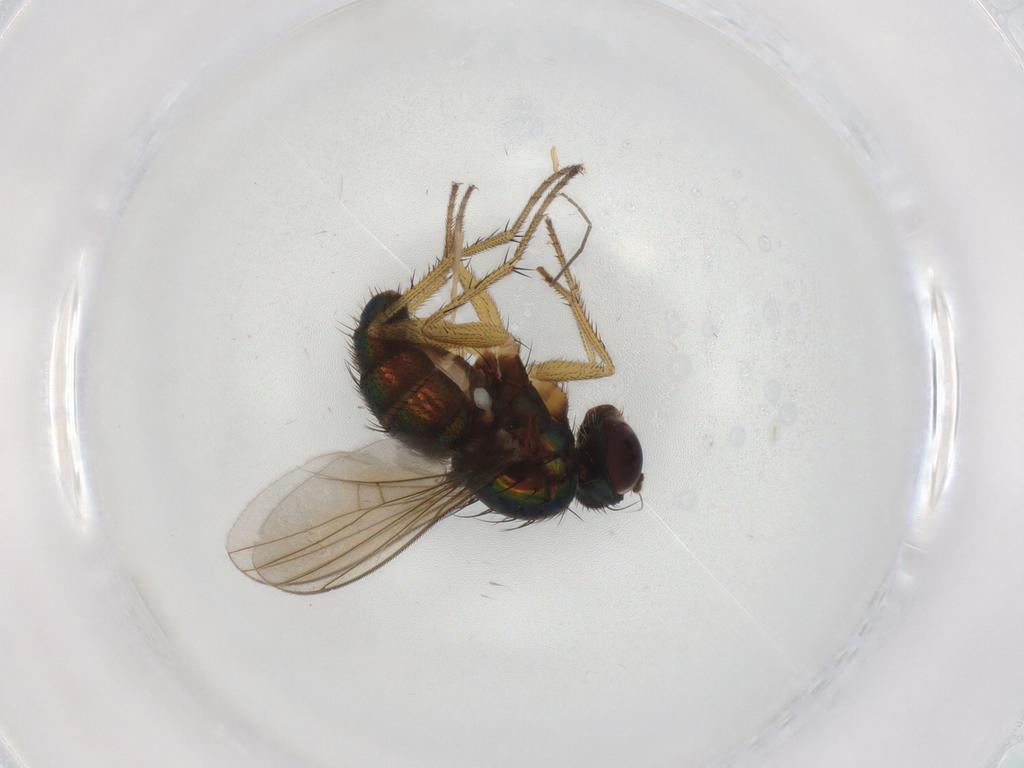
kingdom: Animalia
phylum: Arthropoda
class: Insecta
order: Diptera
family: Dolichopodidae
